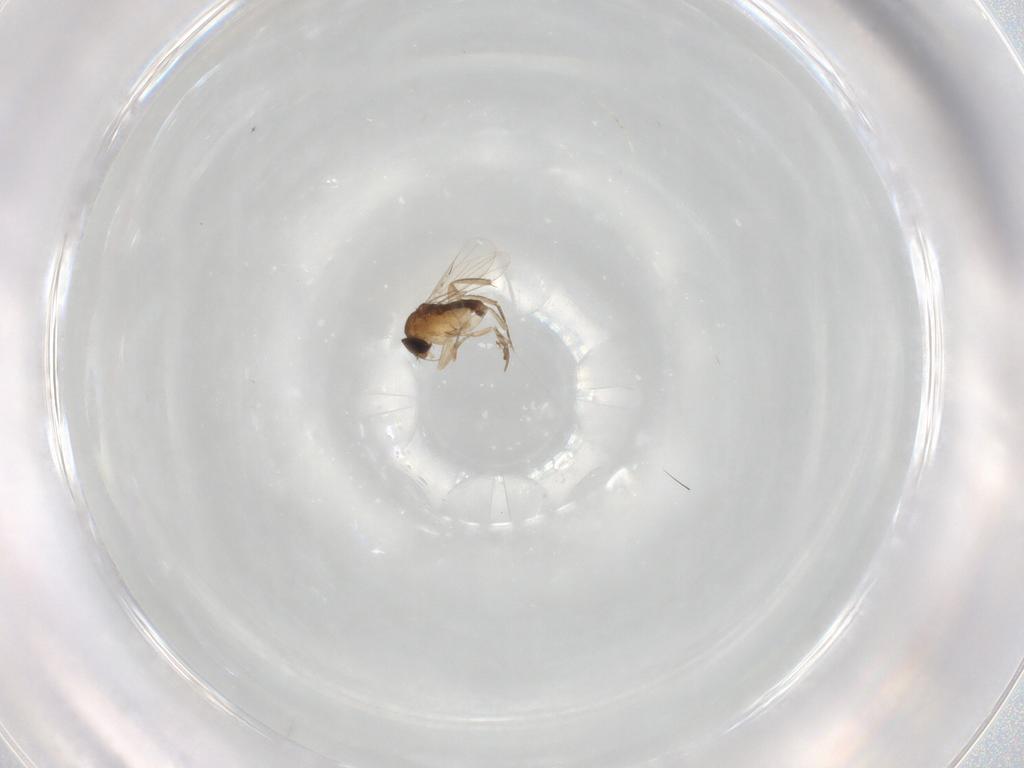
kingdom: Animalia
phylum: Arthropoda
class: Insecta
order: Diptera
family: Phoridae
